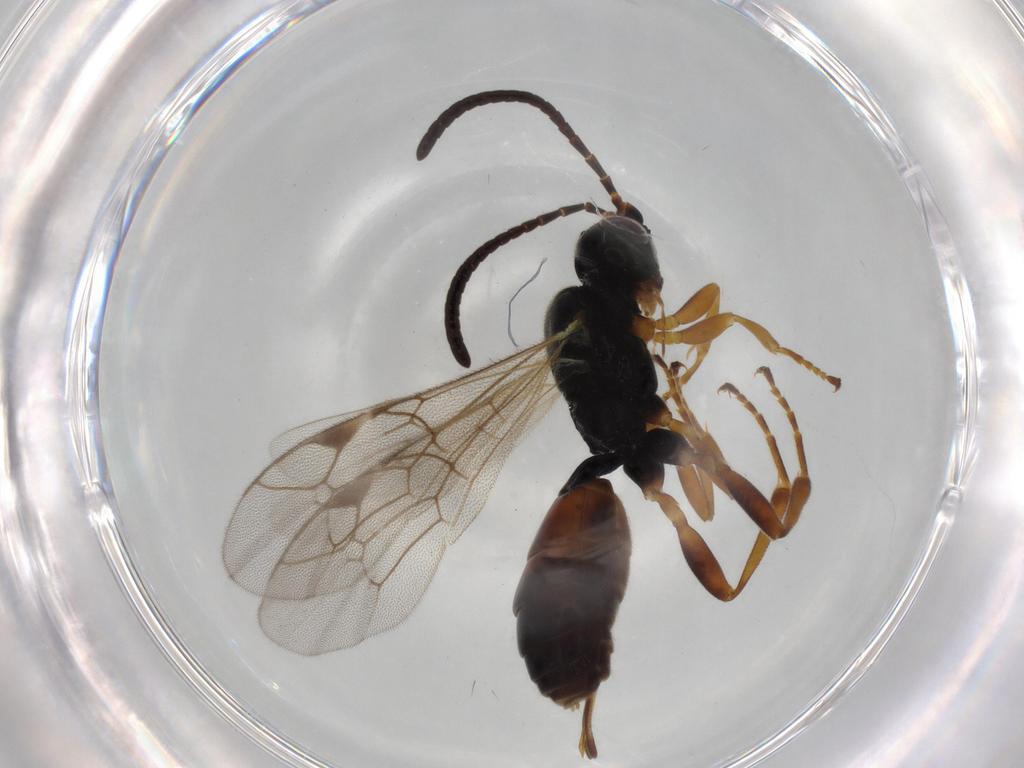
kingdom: Animalia
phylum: Arthropoda
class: Insecta
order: Hymenoptera
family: Ichneumonidae
